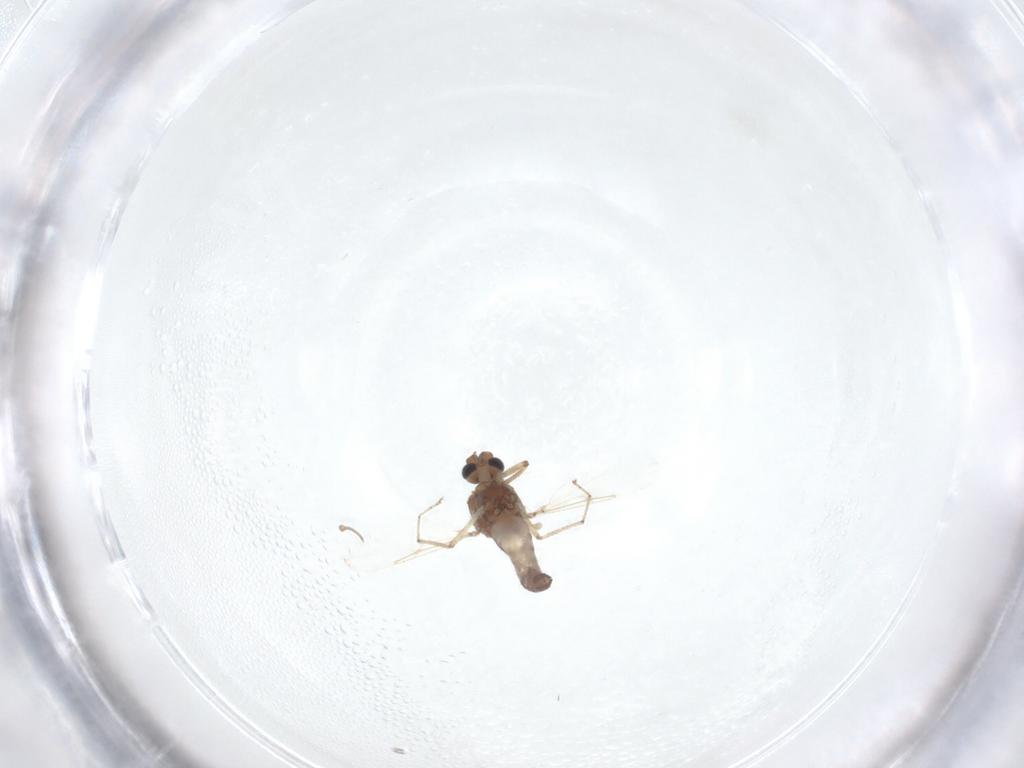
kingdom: Animalia
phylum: Arthropoda
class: Insecta
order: Diptera
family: Ceratopogonidae
